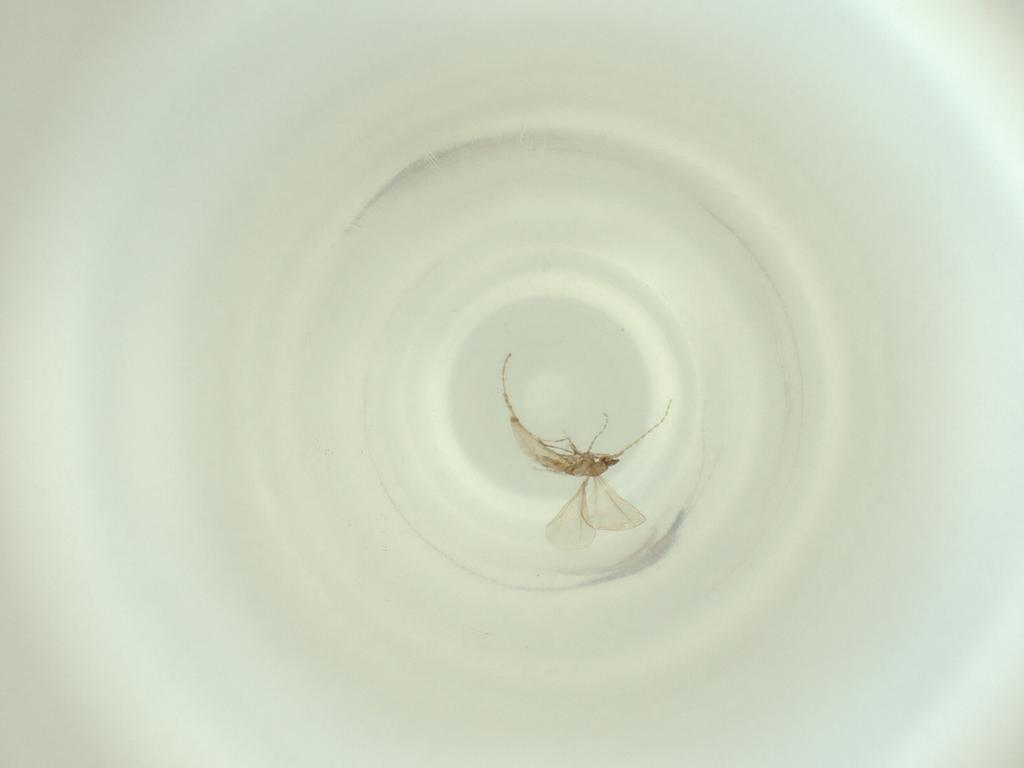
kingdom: Animalia
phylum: Arthropoda
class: Insecta
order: Diptera
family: Cecidomyiidae
